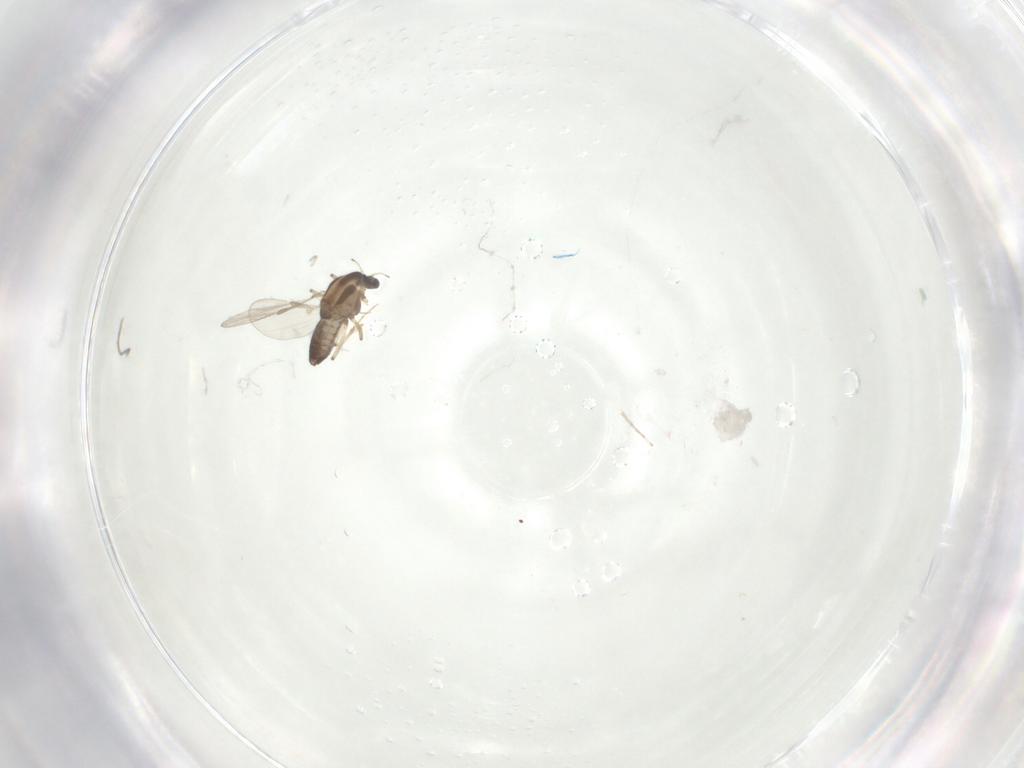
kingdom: Animalia
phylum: Arthropoda
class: Insecta
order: Diptera
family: Chironomidae
